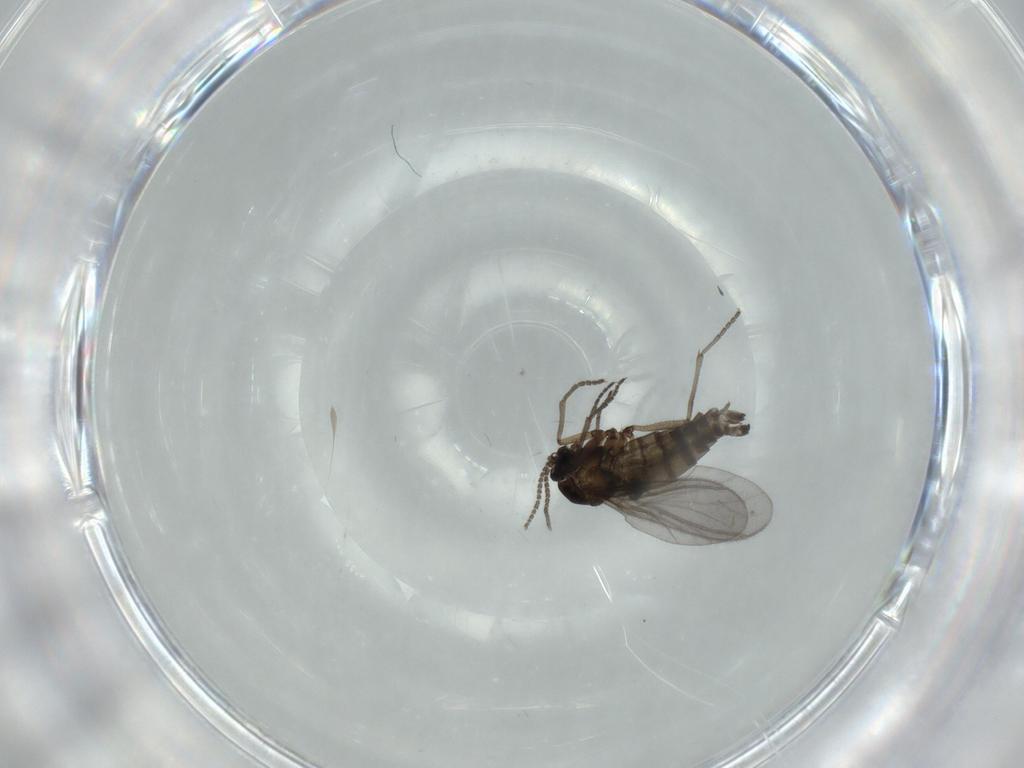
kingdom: Animalia
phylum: Arthropoda
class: Insecta
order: Diptera
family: Sciaridae
